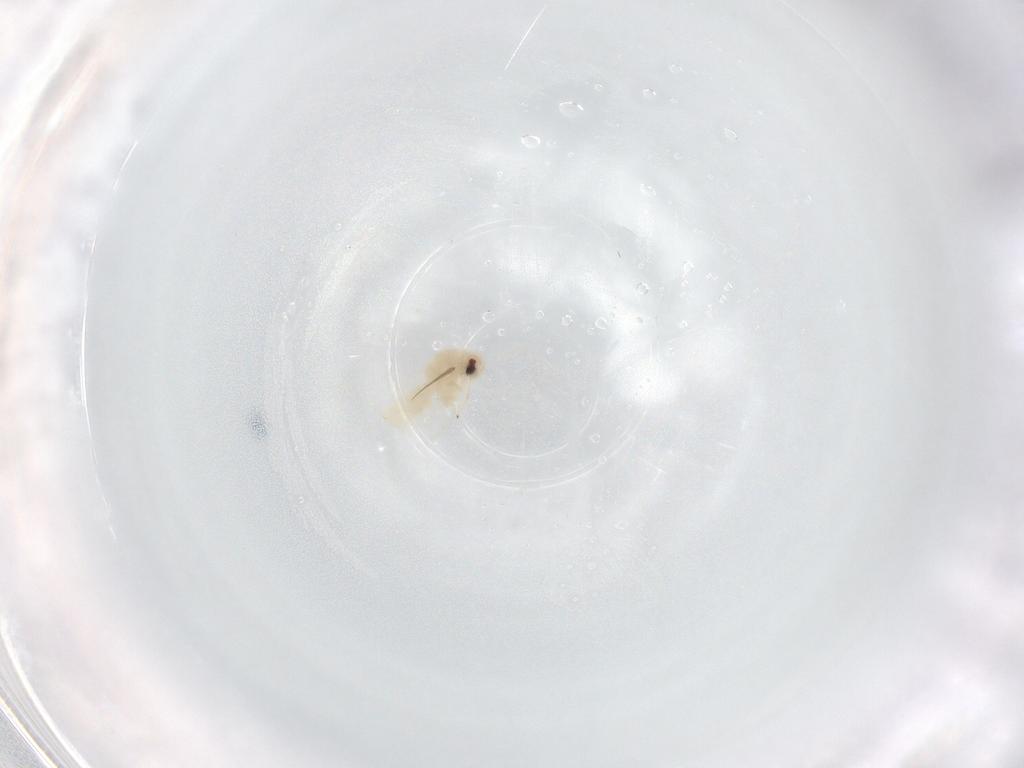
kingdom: Animalia
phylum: Arthropoda
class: Insecta
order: Hemiptera
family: Aleyrodidae
